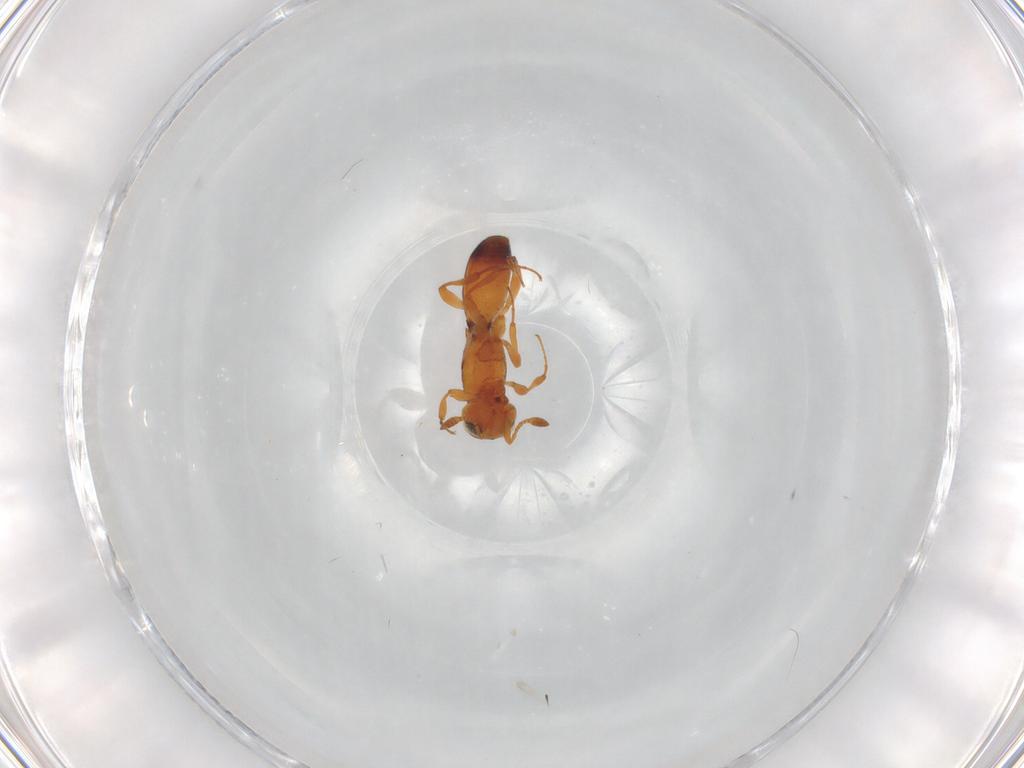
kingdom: Animalia
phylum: Arthropoda
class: Insecta
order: Hymenoptera
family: Platygastridae
